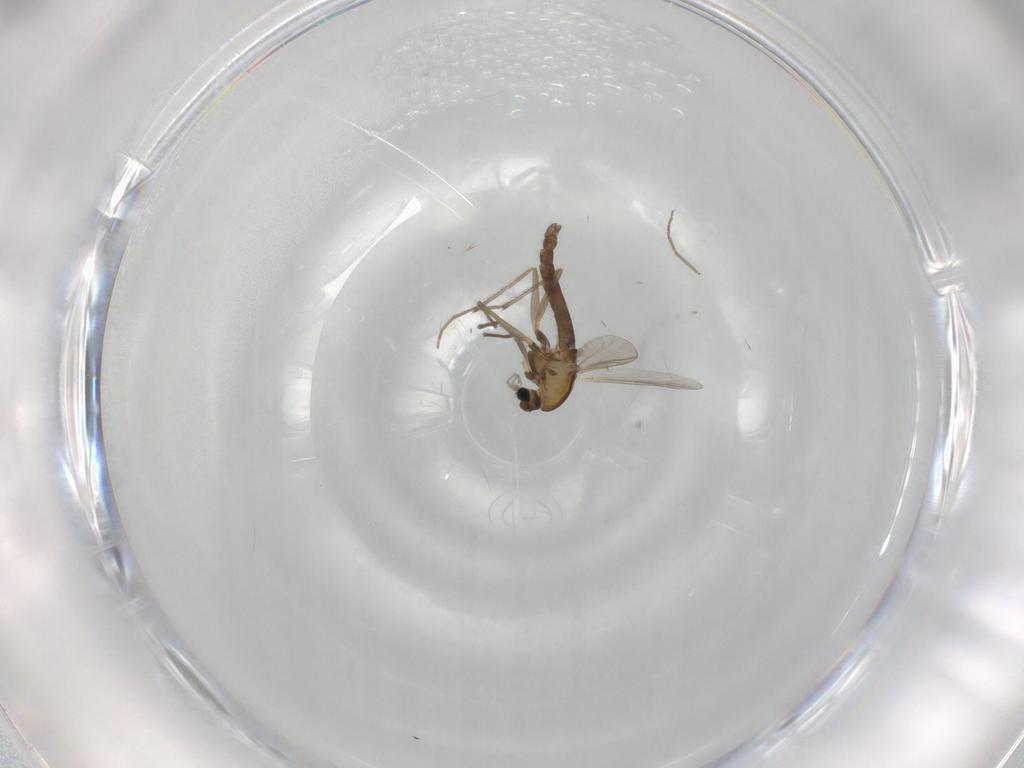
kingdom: Animalia
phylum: Arthropoda
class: Insecta
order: Diptera
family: Chironomidae
